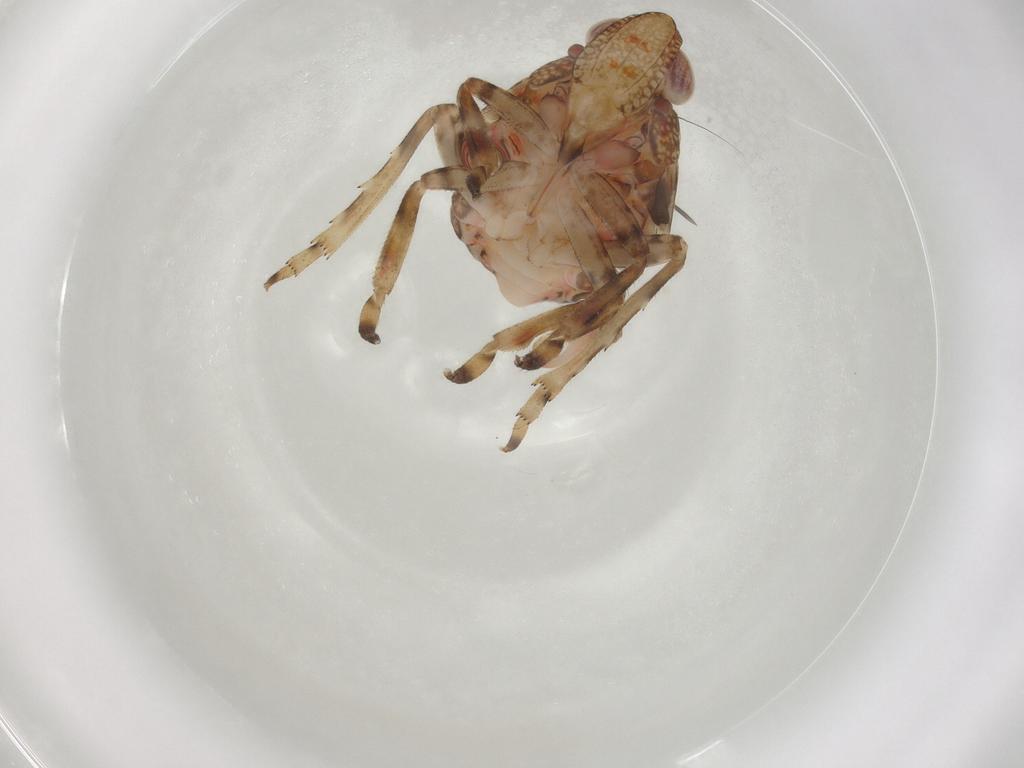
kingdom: Animalia
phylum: Arthropoda
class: Insecta
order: Hemiptera
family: Tropiduchidae
